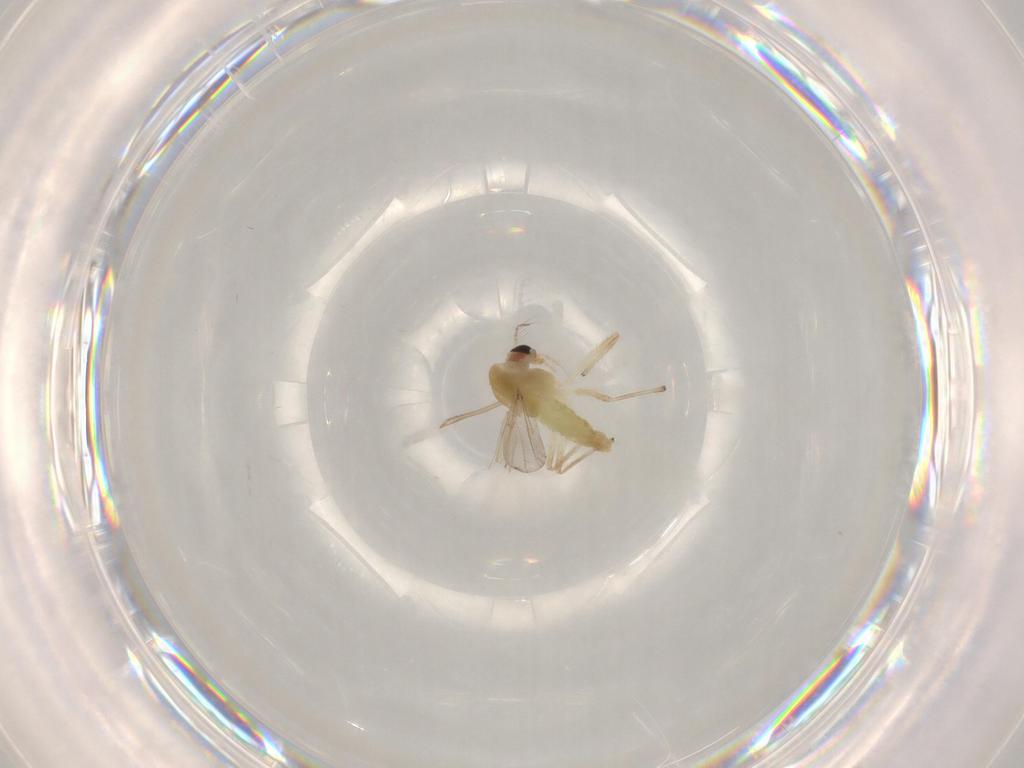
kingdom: Animalia
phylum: Arthropoda
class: Insecta
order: Diptera
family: Chironomidae
